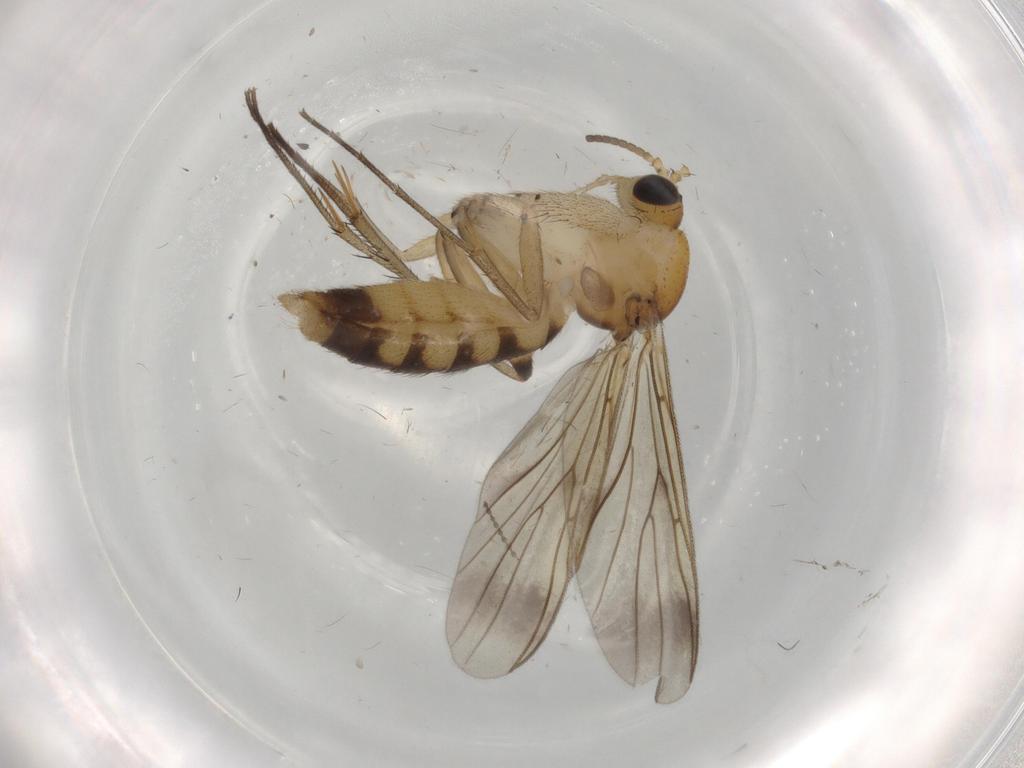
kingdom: Animalia
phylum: Arthropoda
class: Insecta
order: Diptera
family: Mycetophilidae
